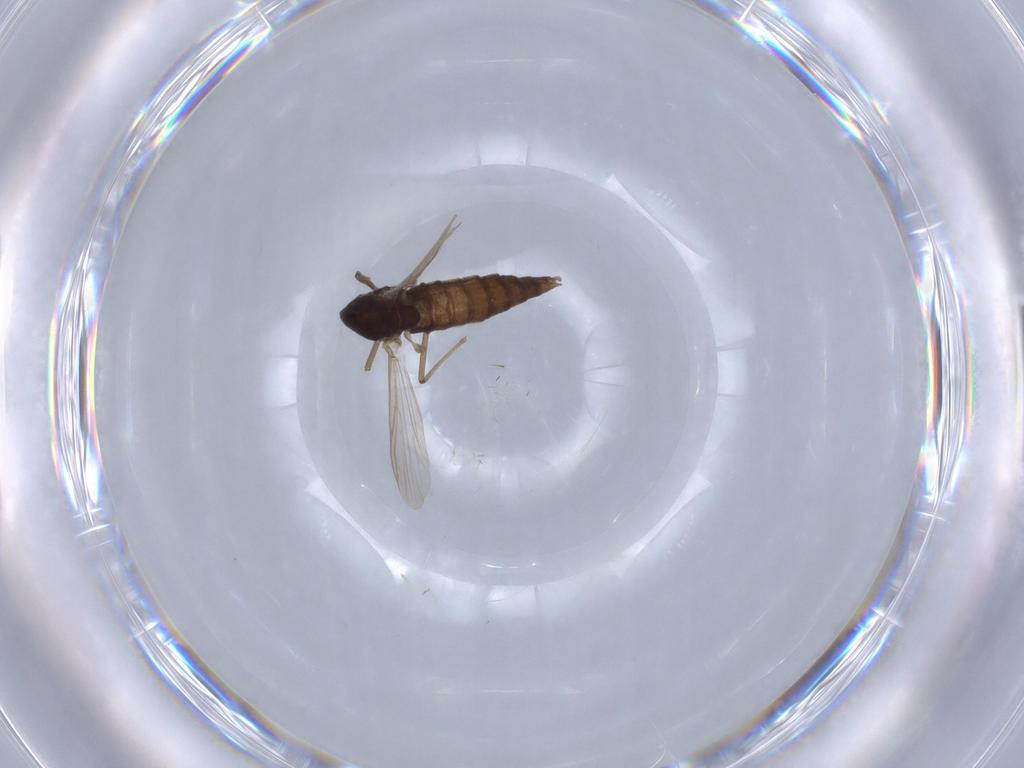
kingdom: Animalia
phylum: Arthropoda
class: Insecta
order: Diptera
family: Chironomidae
